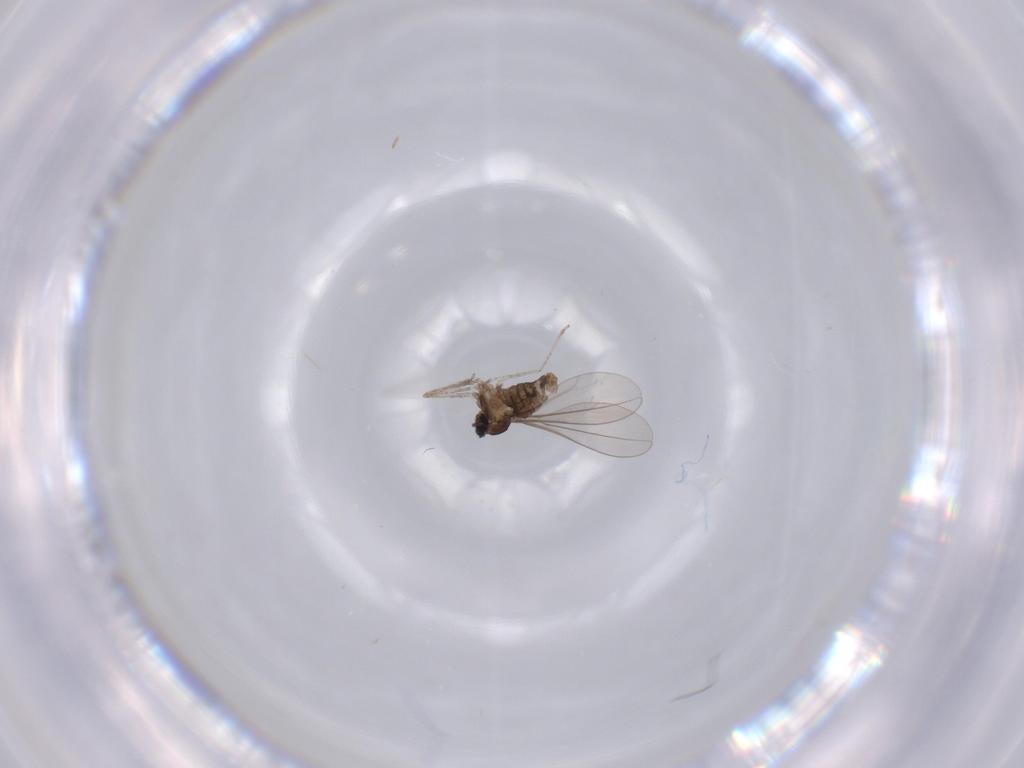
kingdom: Animalia
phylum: Arthropoda
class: Insecta
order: Diptera
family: Cecidomyiidae
